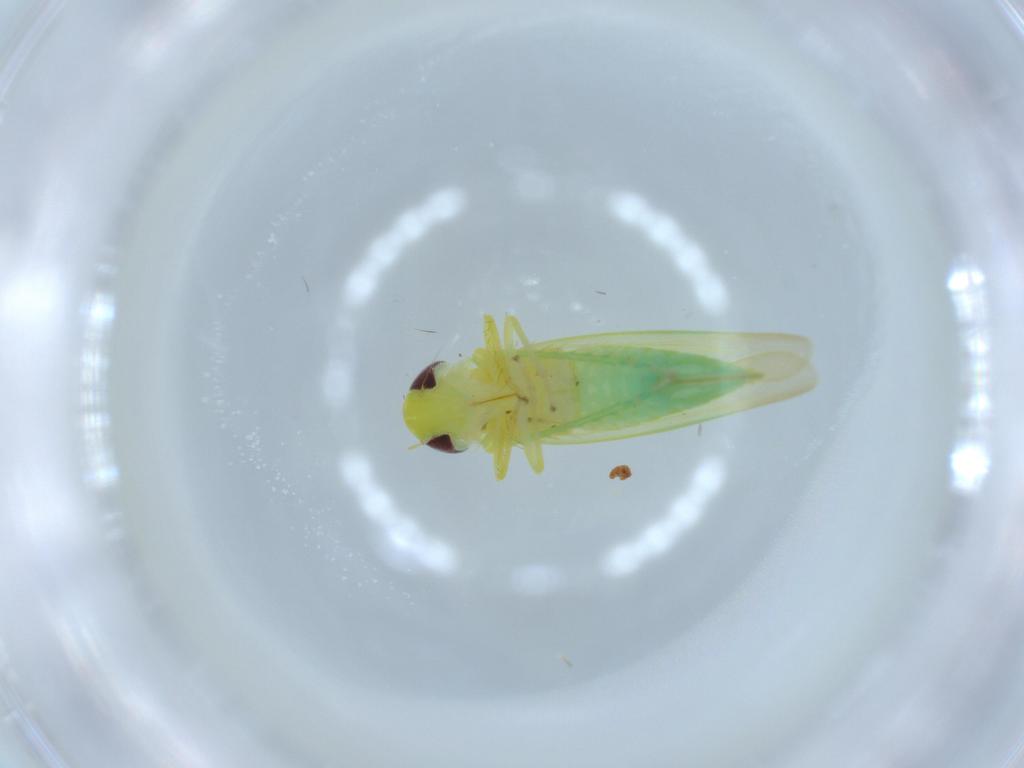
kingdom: Animalia
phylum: Arthropoda
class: Insecta
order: Hemiptera
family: Cicadellidae
